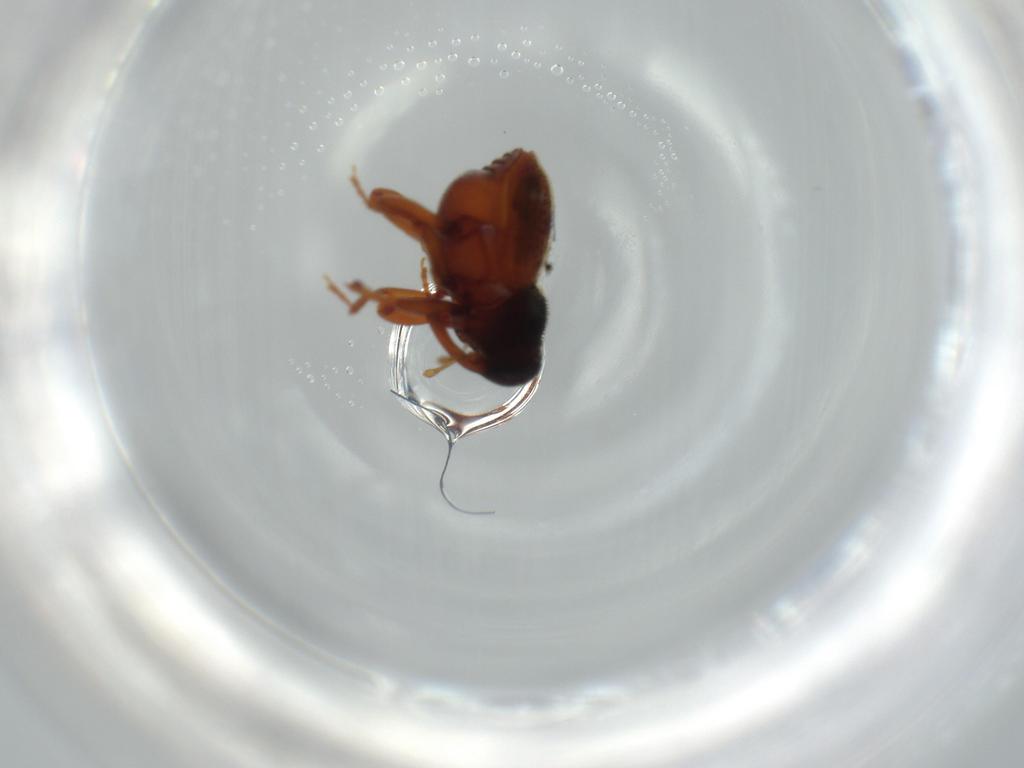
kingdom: Animalia
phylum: Arthropoda
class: Insecta
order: Coleoptera
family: Curculionidae
